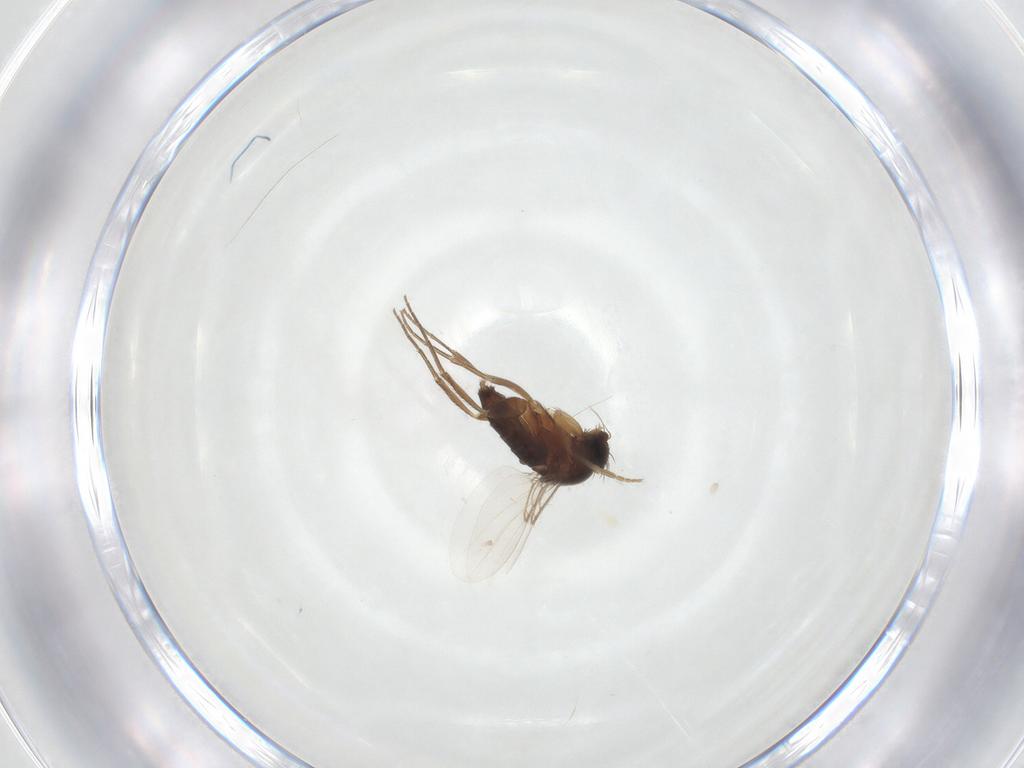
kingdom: Animalia
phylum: Arthropoda
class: Insecta
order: Diptera
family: Phoridae
